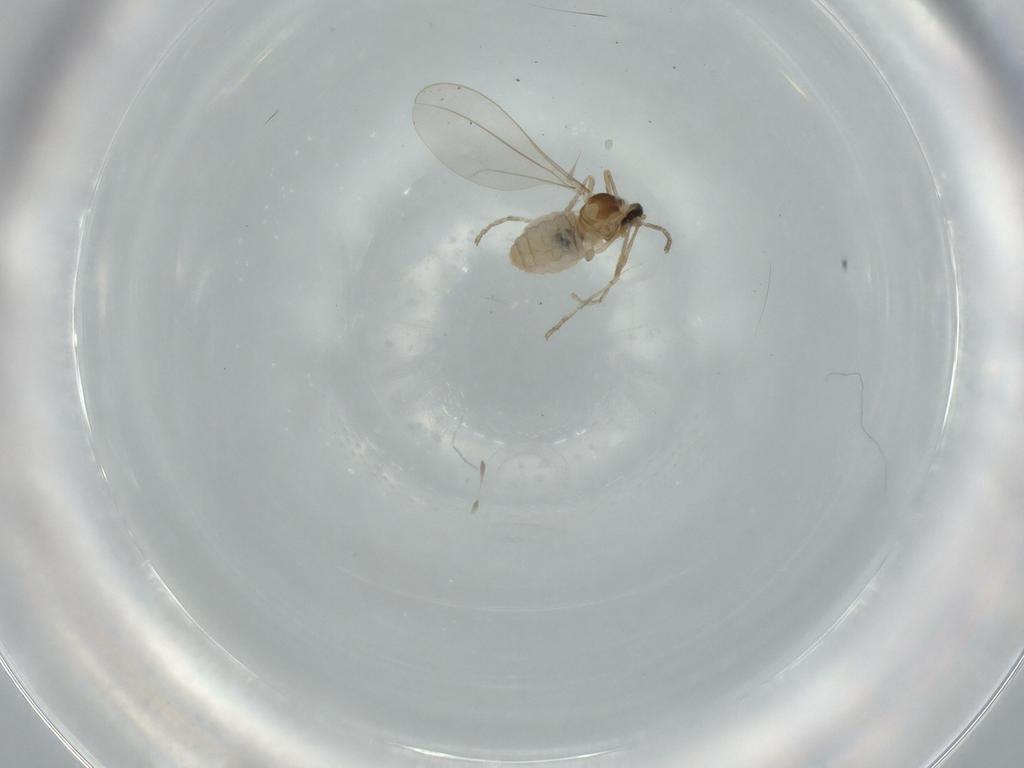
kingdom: Animalia
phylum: Arthropoda
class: Insecta
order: Diptera
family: Cecidomyiidae
